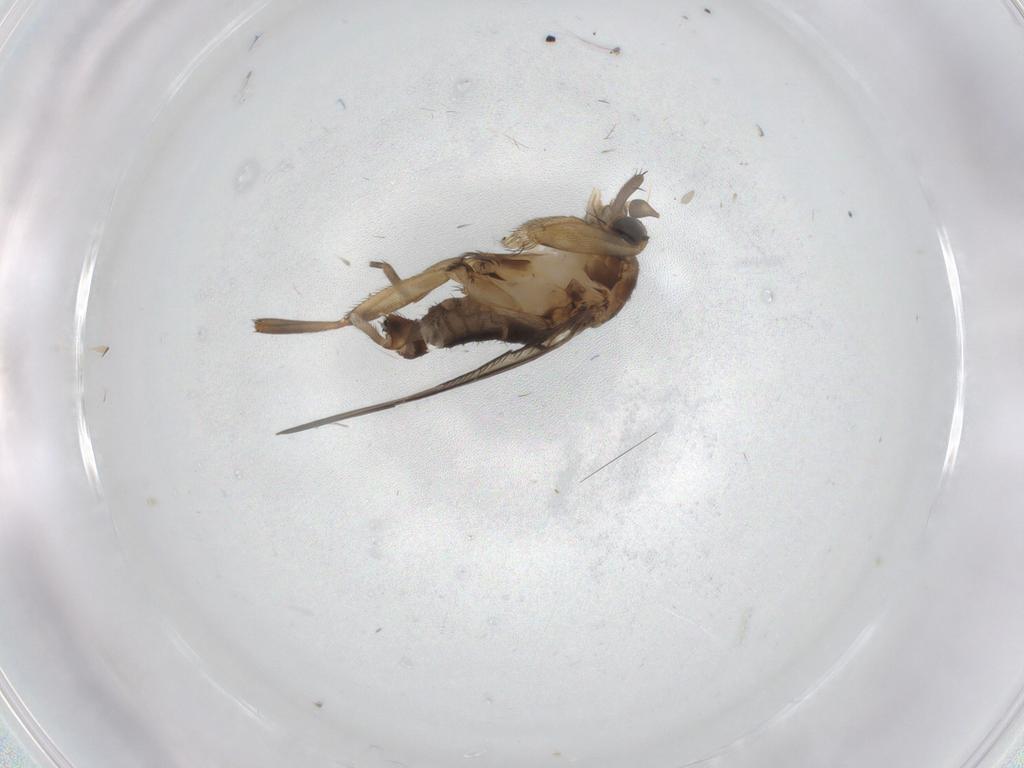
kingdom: Animalia
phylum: Arthropoda
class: Insecta
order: Diptera
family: Phoridae
